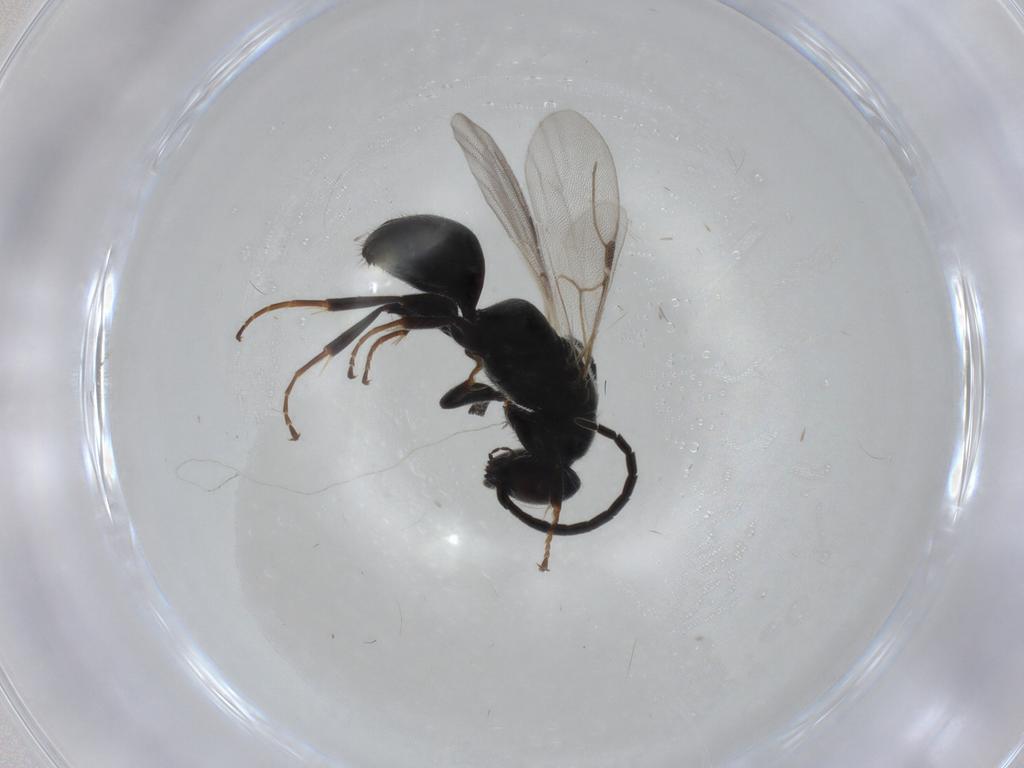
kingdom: Animalia
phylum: Arthropoda
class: Insecta
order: Hymenoptera
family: Bethylidae
